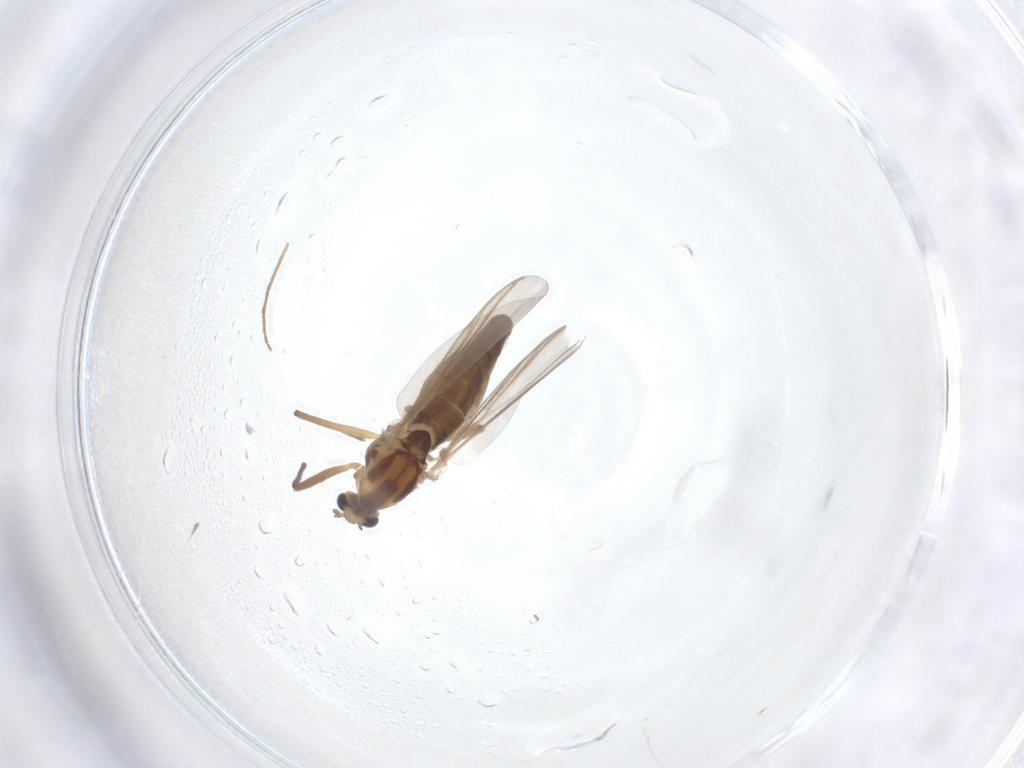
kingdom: Animalia
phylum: Arthropoda
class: Insecta
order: Diptera
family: Chironomidae
